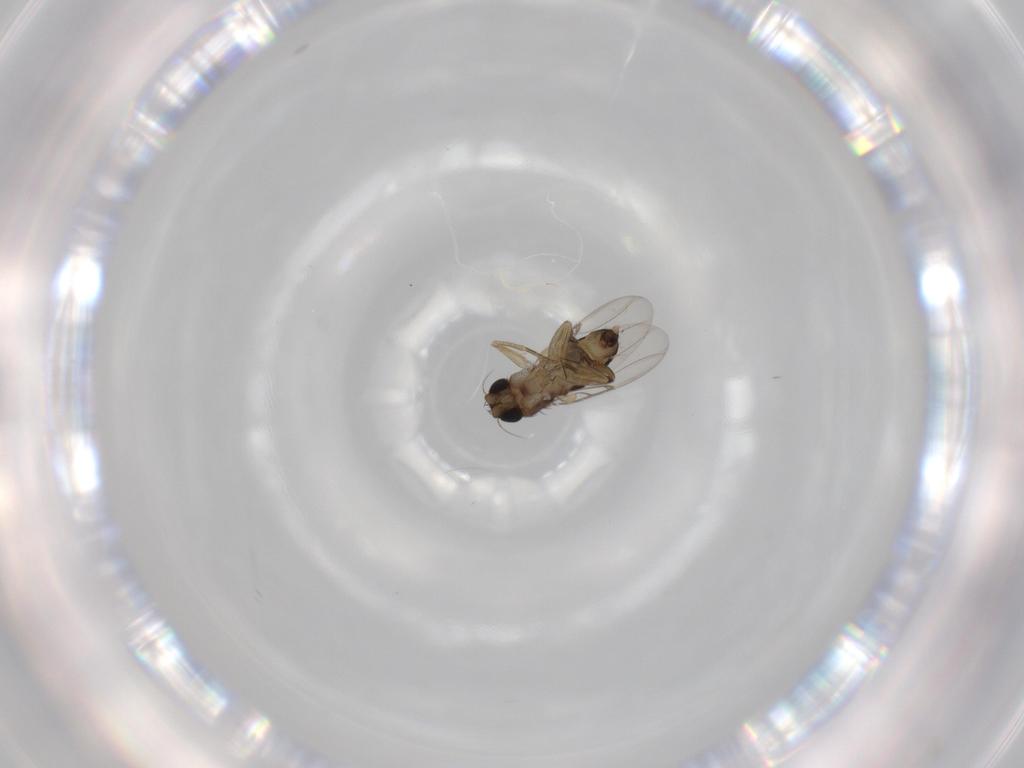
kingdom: Animalia
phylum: Arthropoda
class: Insecta
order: Diptera
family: Phoridae
